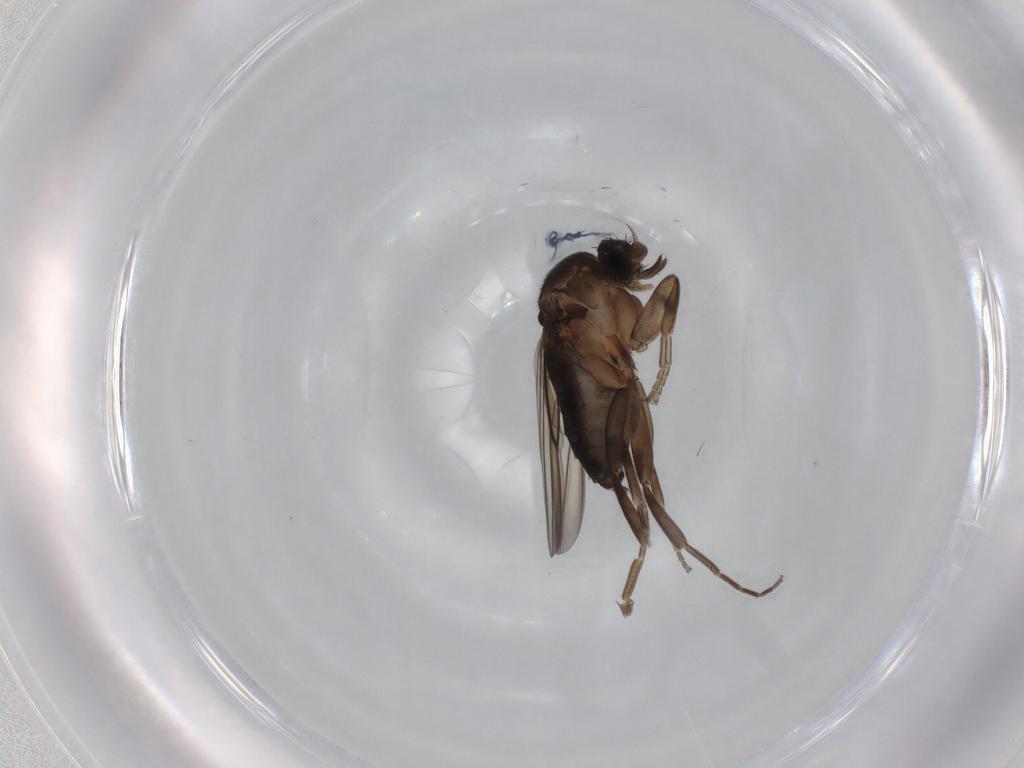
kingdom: Animalia
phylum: Arthropoda
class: Insecta
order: Diptera
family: Phoridae
